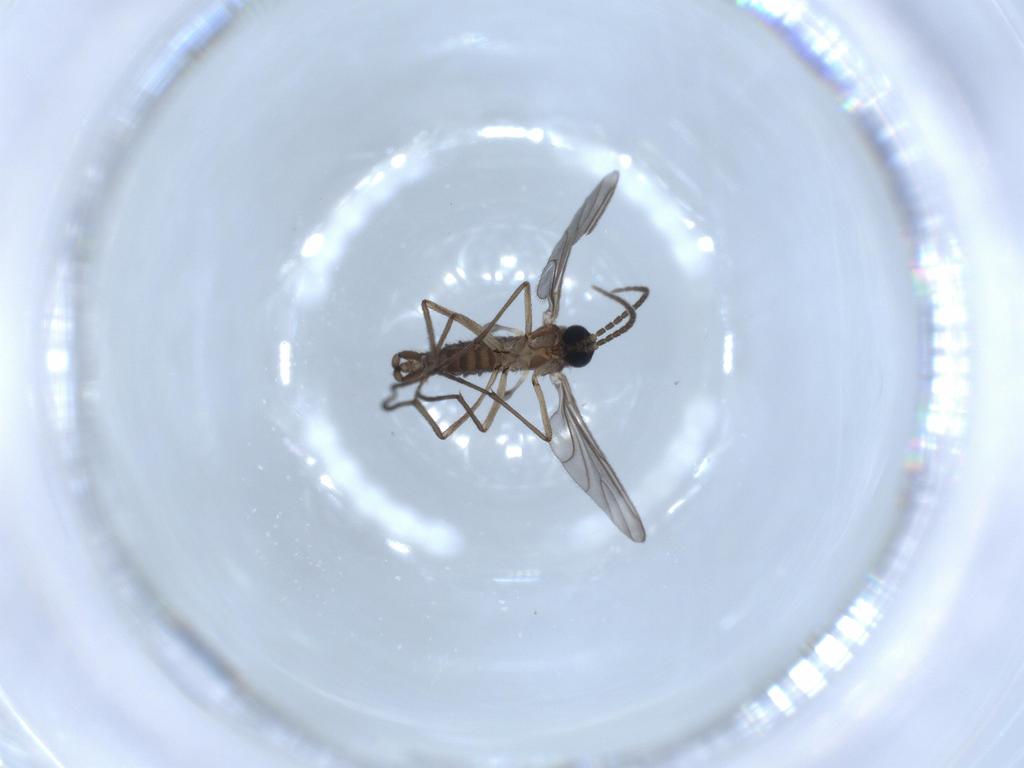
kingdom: Animalia
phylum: Arthropoda
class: Insecta
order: Diptera
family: Sciaridae
